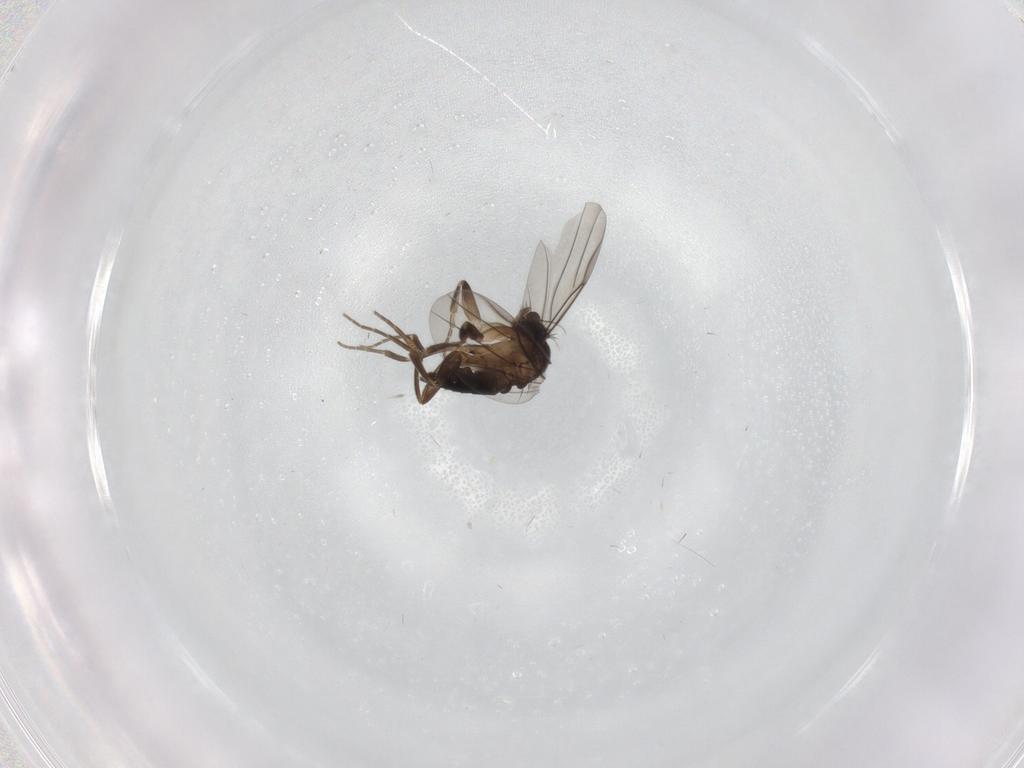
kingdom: Animalia
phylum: Arthropoda
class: Insecta
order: Diptera
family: Phoridae
